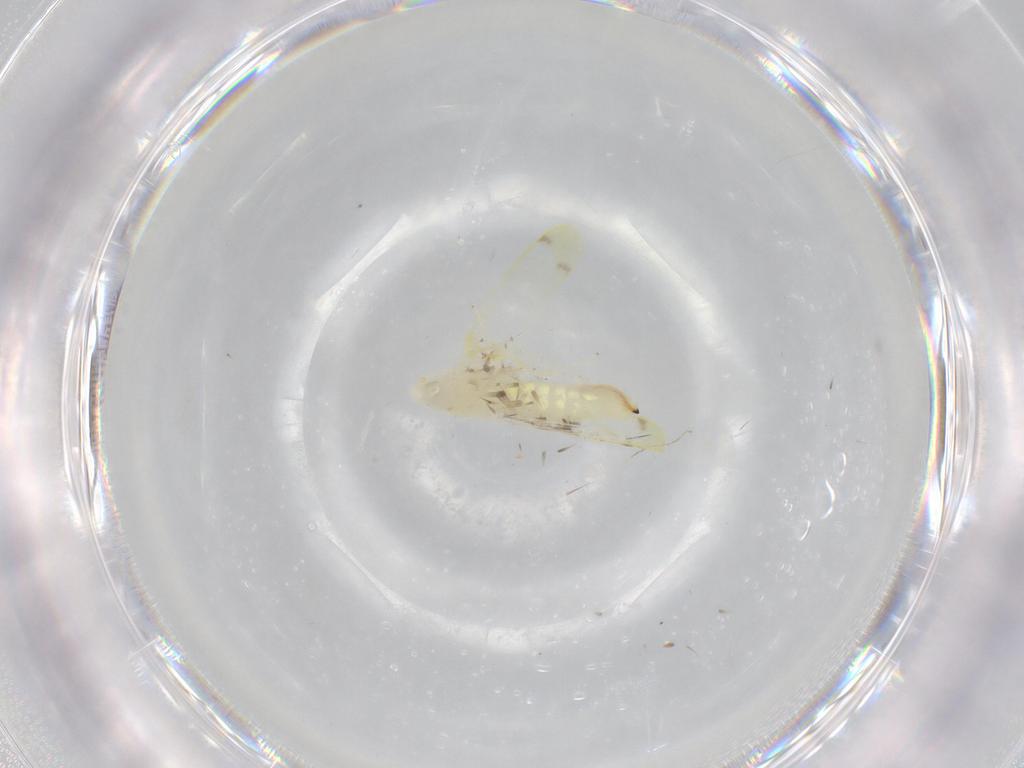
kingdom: Animalia
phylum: Arthropoda
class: Insecta
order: Hemiptera
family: Cicadellidae
